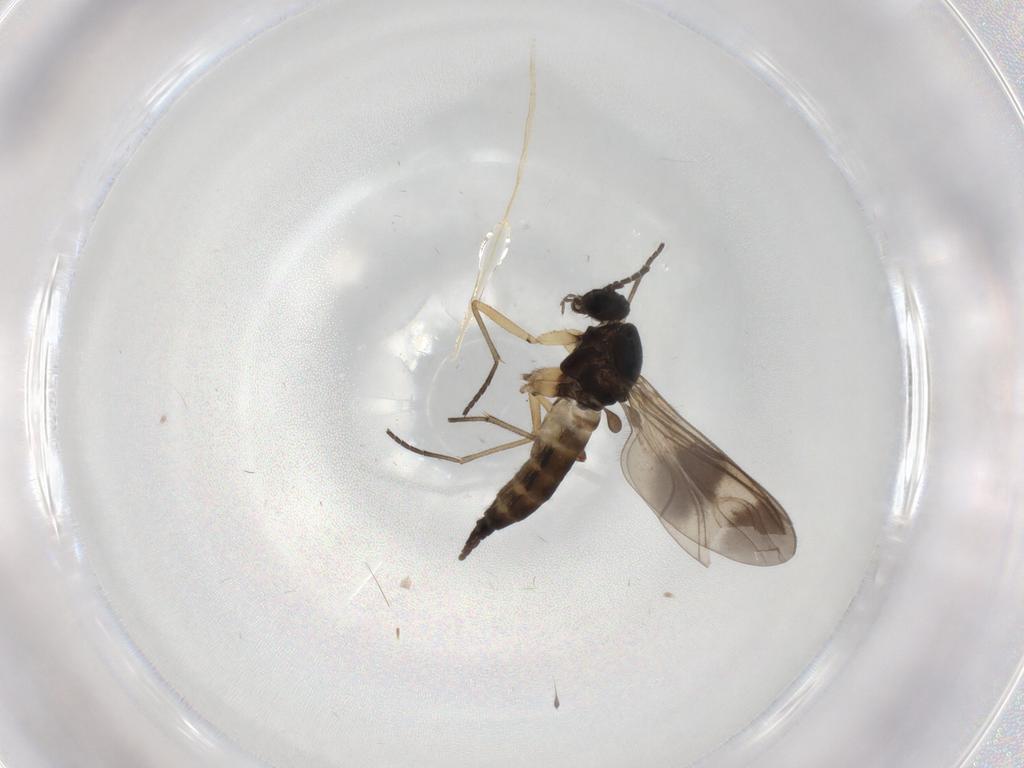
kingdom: Animalia
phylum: Arthropoda
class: Insecta
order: Diptera
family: Sciaridae
